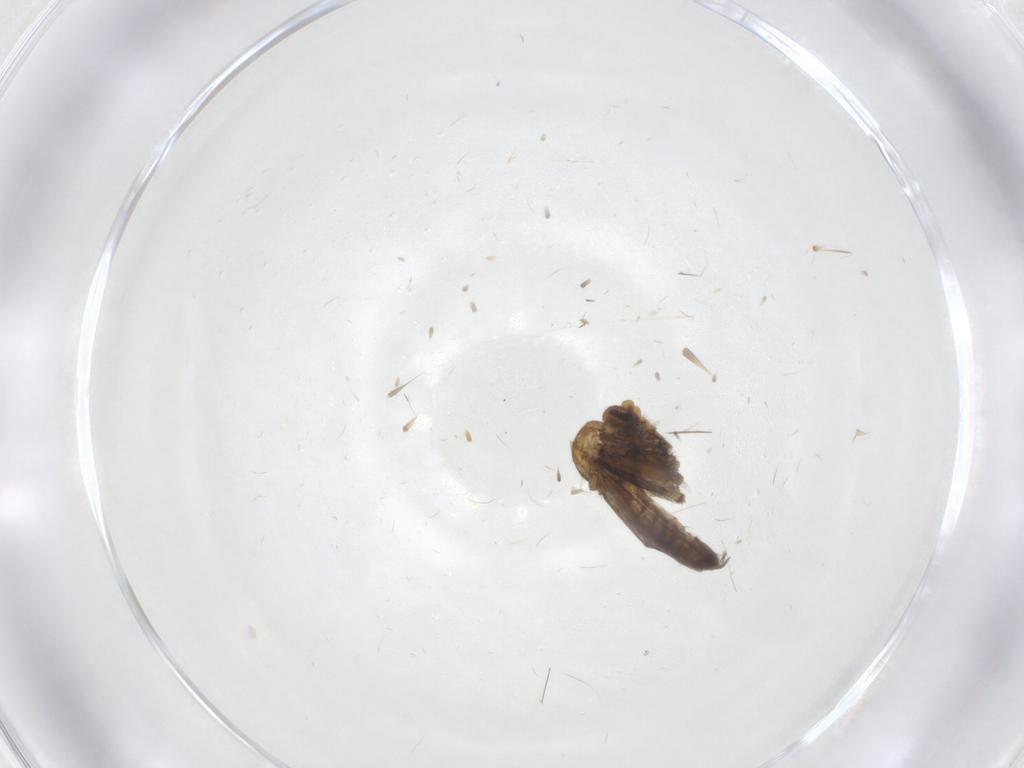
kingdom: Animalia
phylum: Arthropoda
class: Insecta
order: Diptera
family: Chironomidae
